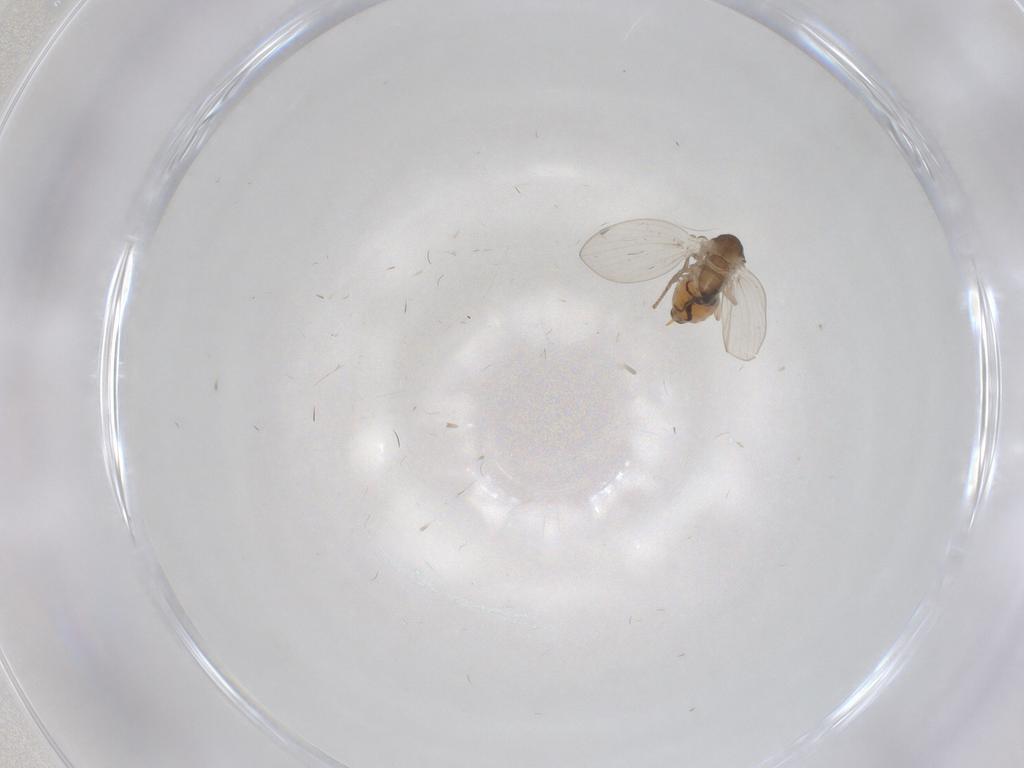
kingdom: Animalia
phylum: Arthropoda
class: Insecta
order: Diptera
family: Psychodidae
